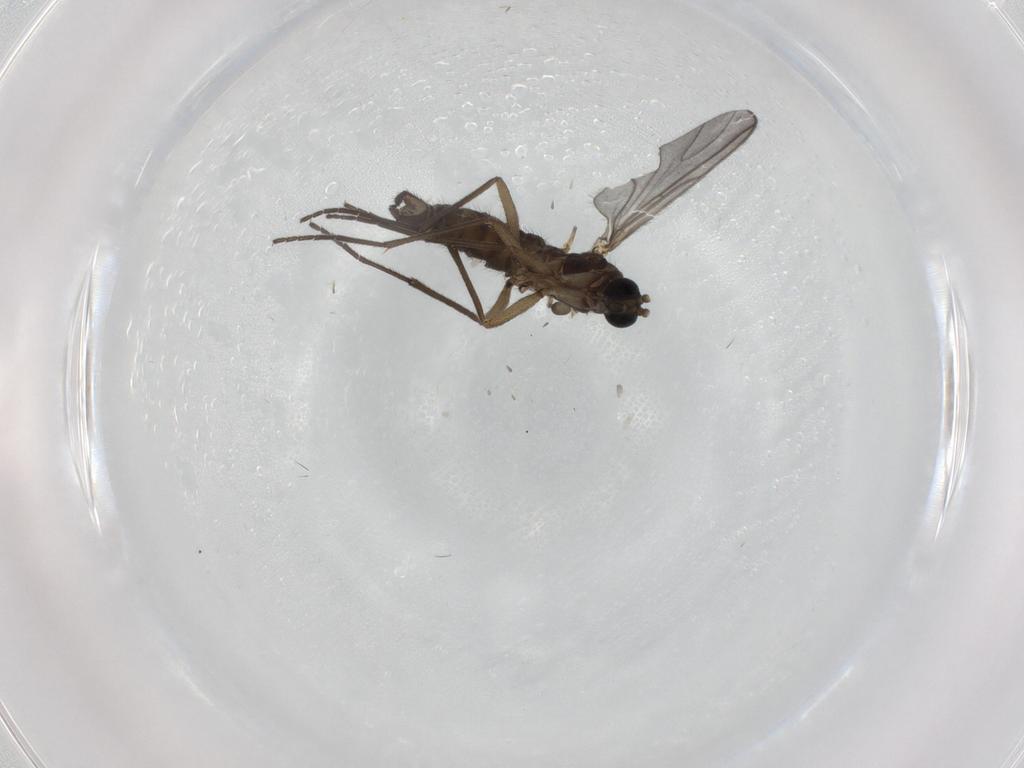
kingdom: Animalia
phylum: Arthropoda
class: Insecta
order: Diptera
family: Sciaridae
